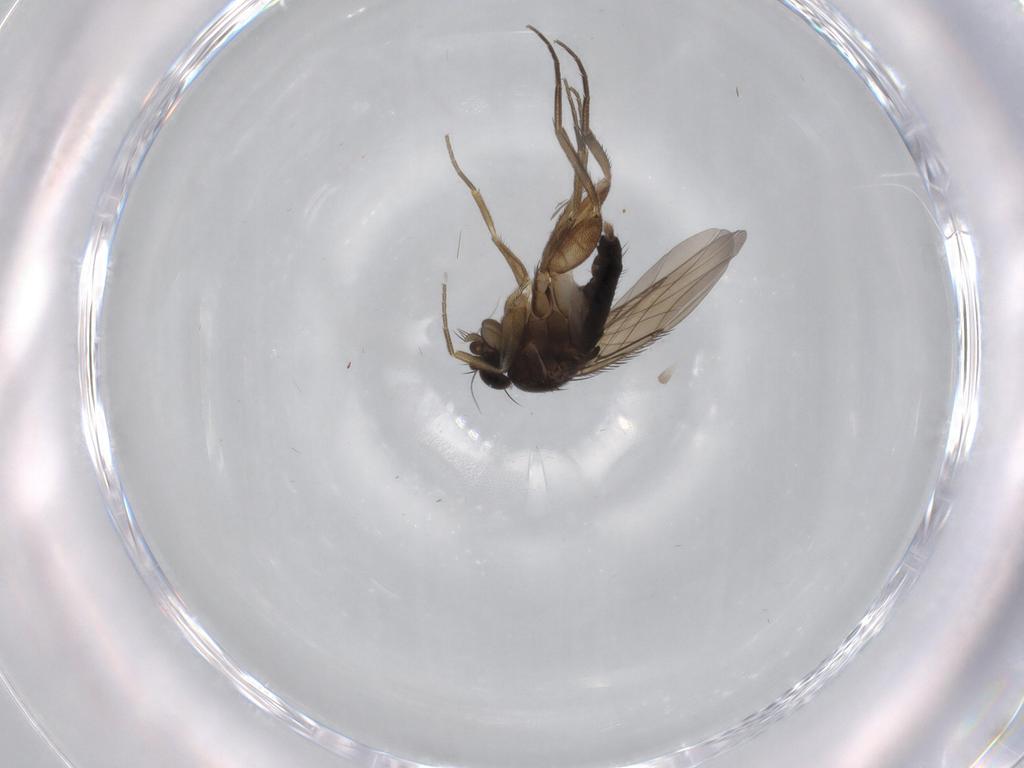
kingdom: Animalia
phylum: Arthropoda
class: Insecta
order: Diptera
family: Phoridae
